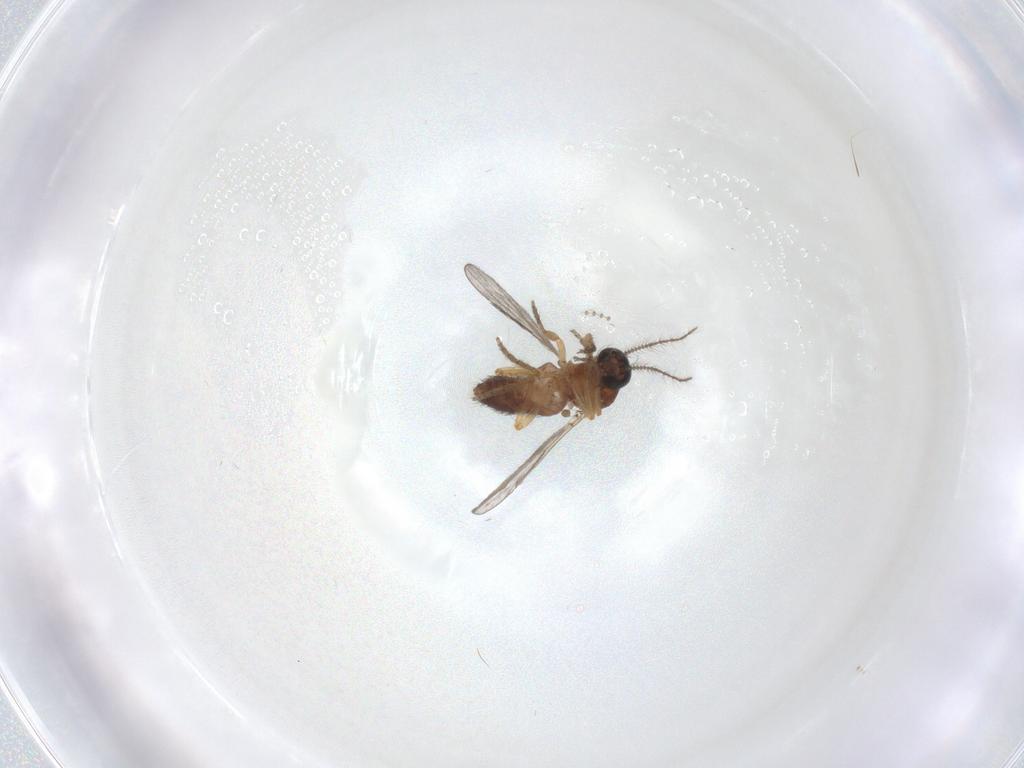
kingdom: Animalia
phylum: Arthropoda
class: Insecta
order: Diptera
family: Ceratopogonidae
